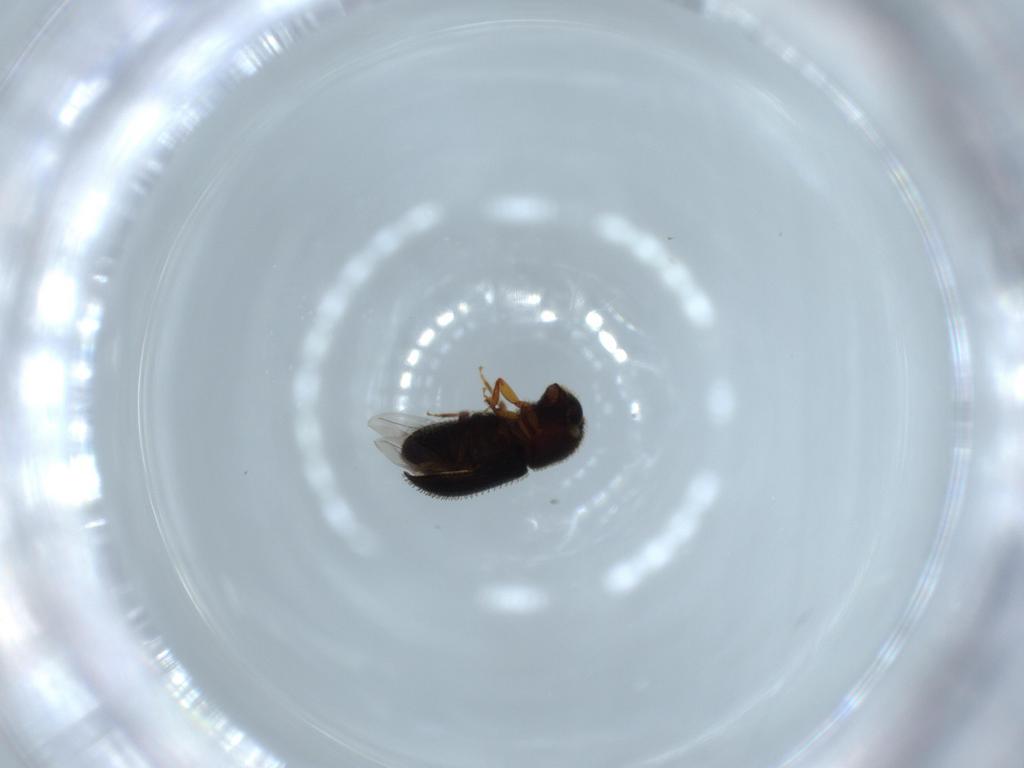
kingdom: Animalia
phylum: Arthropoda
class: Insecta
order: Coleoptera
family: Curculionidae
